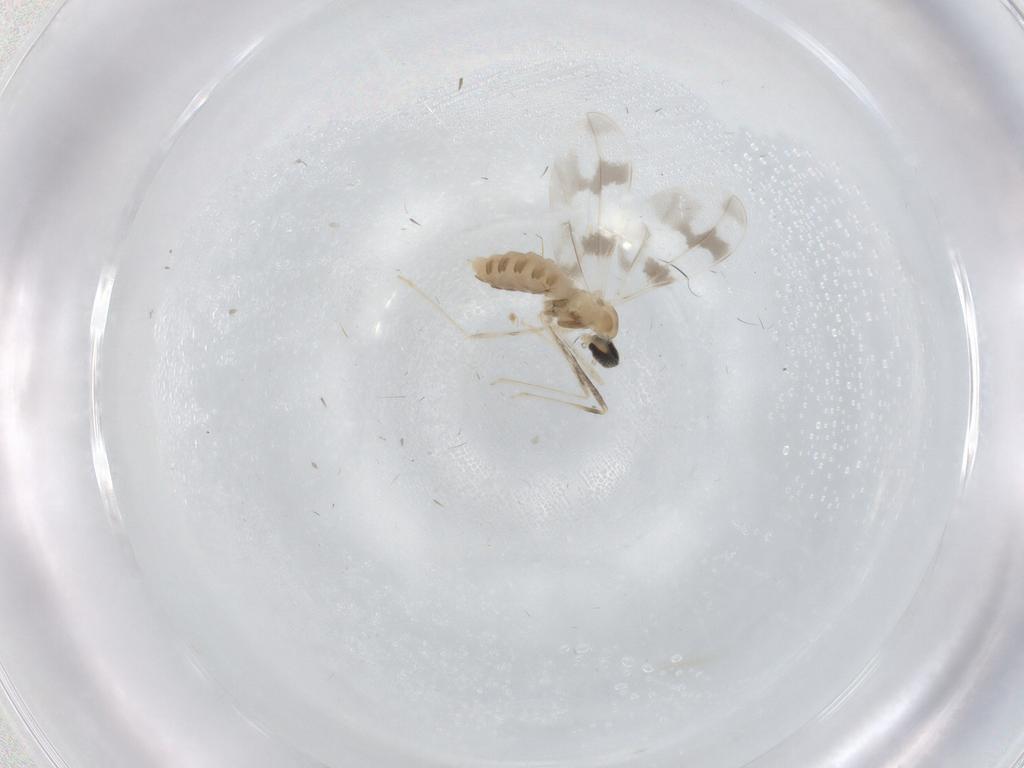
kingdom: Animalia
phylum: Arthropoda
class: Insecta
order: Diptera
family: Cecidomyiidae
